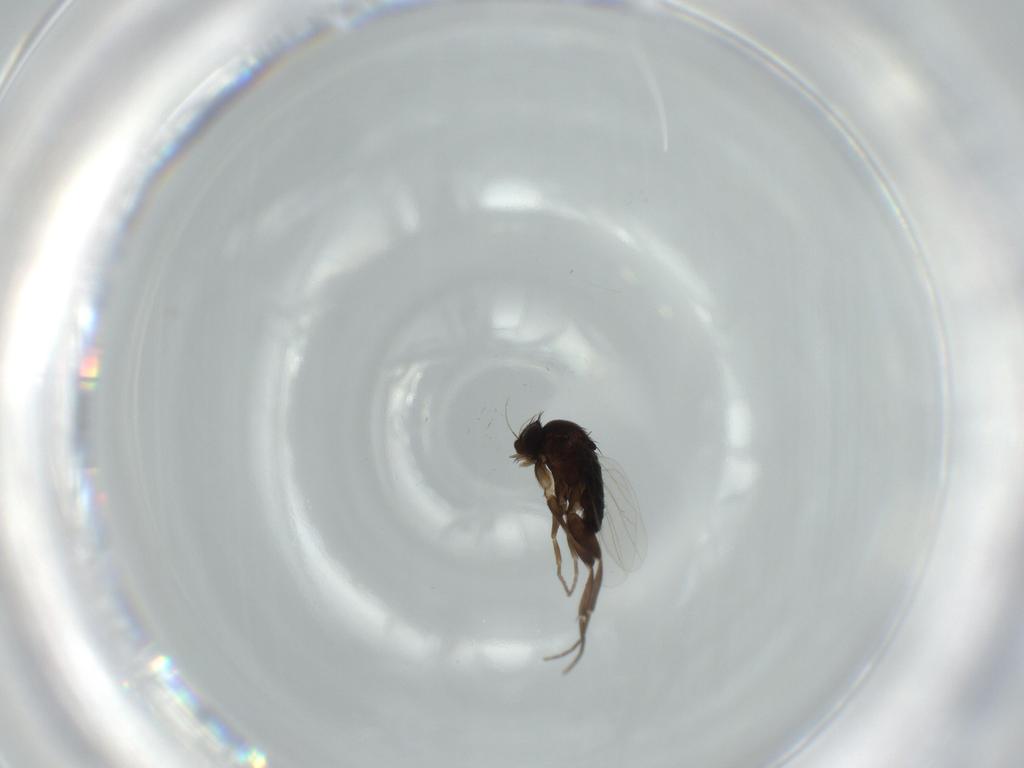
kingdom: Animalia
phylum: Arthropoda
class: Insecta
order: Diptera
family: Phoridae
